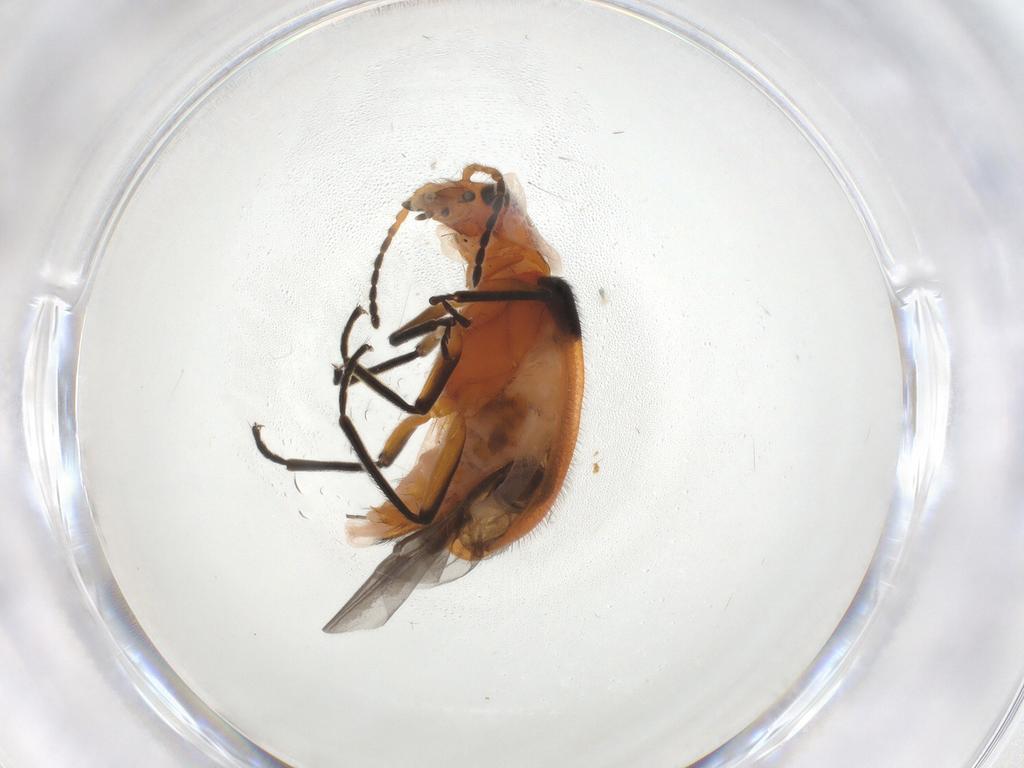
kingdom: Animalia
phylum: Arthropoda
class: Insecta
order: Coleoptera
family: Melyridae
